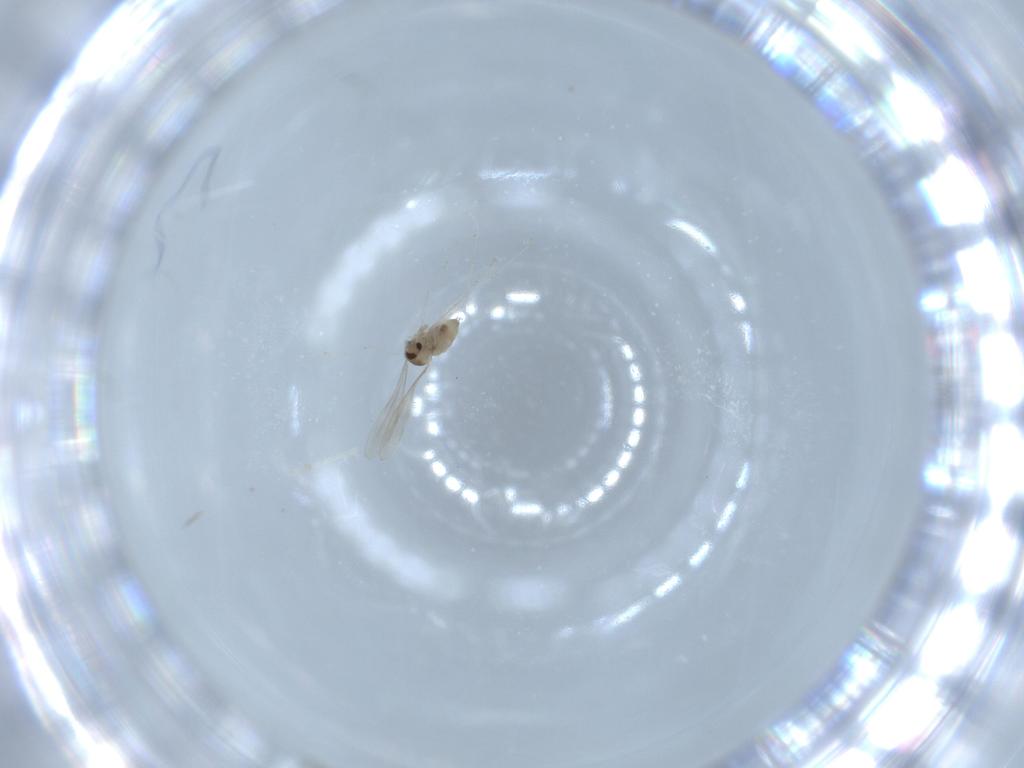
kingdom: Animalia
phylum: Arthropoda
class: Insecta
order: Diptera
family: Cecidomyiidae
